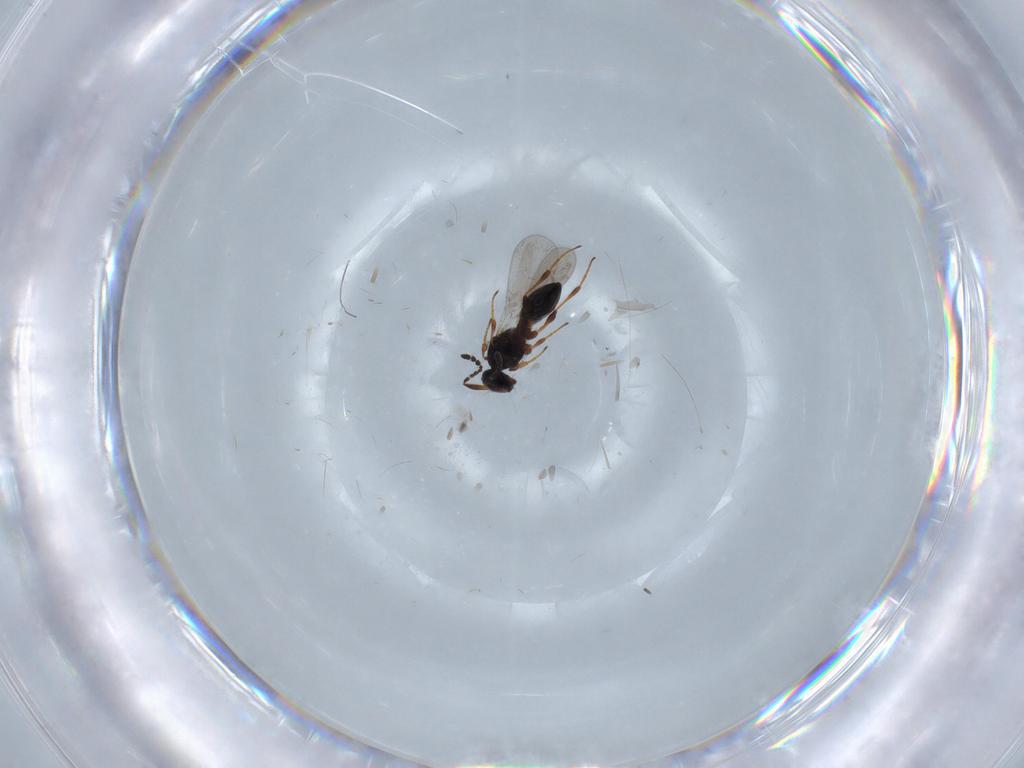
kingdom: Animalia
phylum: Arthropoda
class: Insecta
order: Hymenoptera
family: Platygastridae
